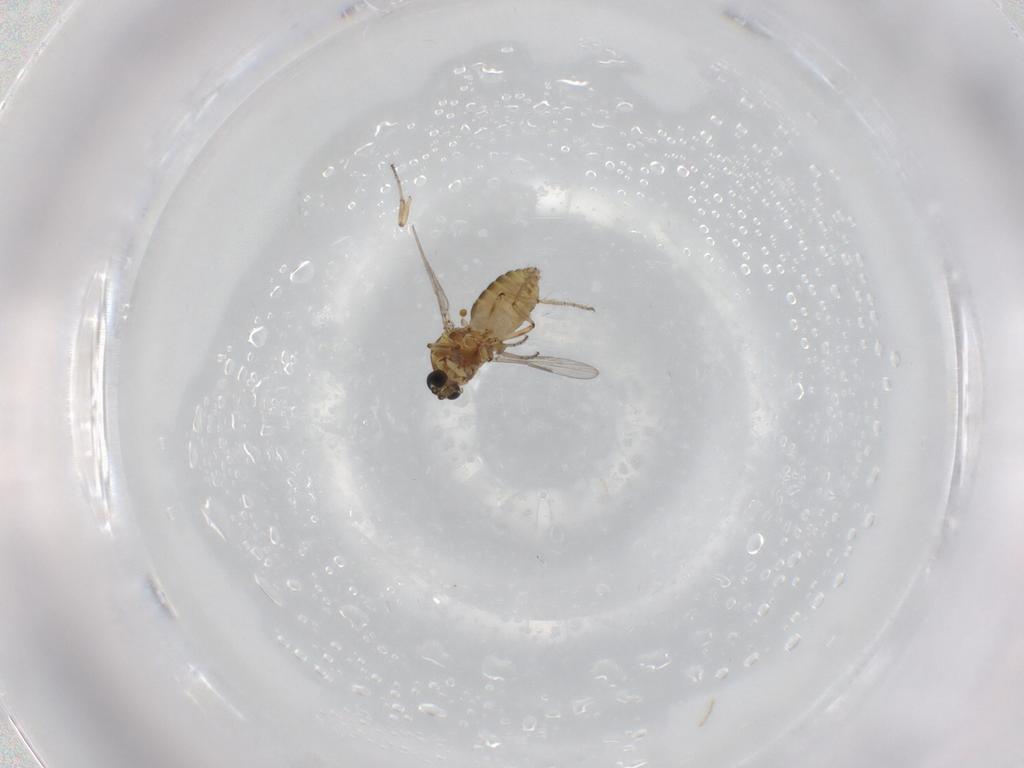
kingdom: Animalia
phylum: Arthropoda
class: Insecta
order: Diptera
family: Ceratopogonidae
